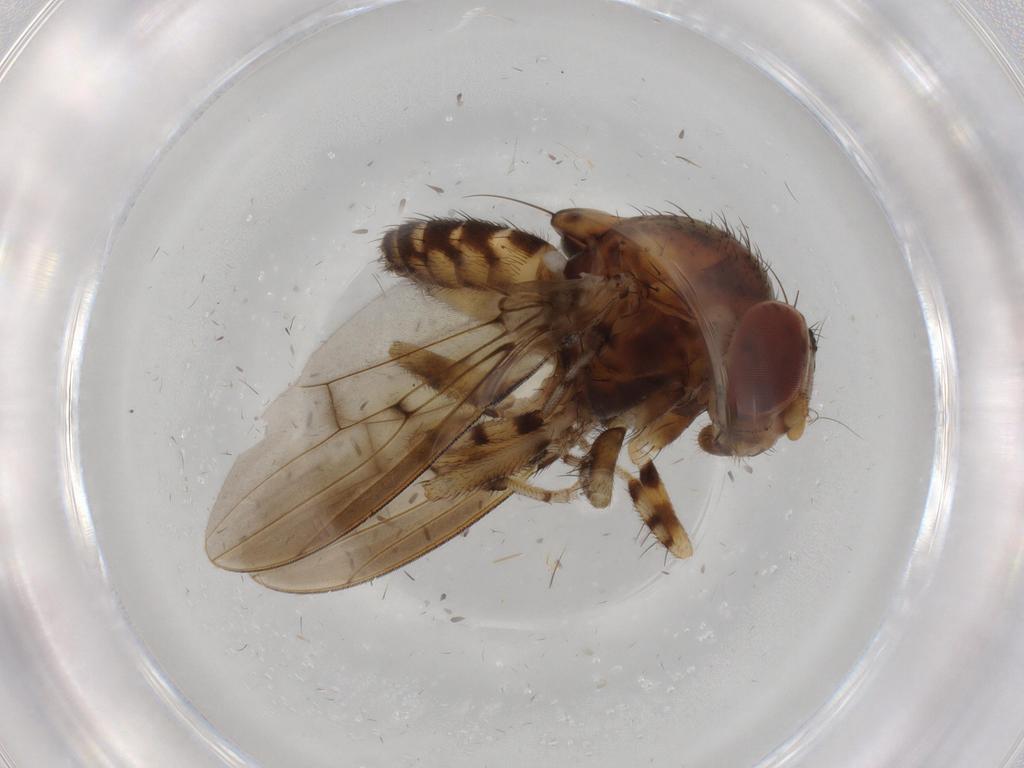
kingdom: Animalia
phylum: Arthropoda
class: Insecta
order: Diptera
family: Drosophilidae
